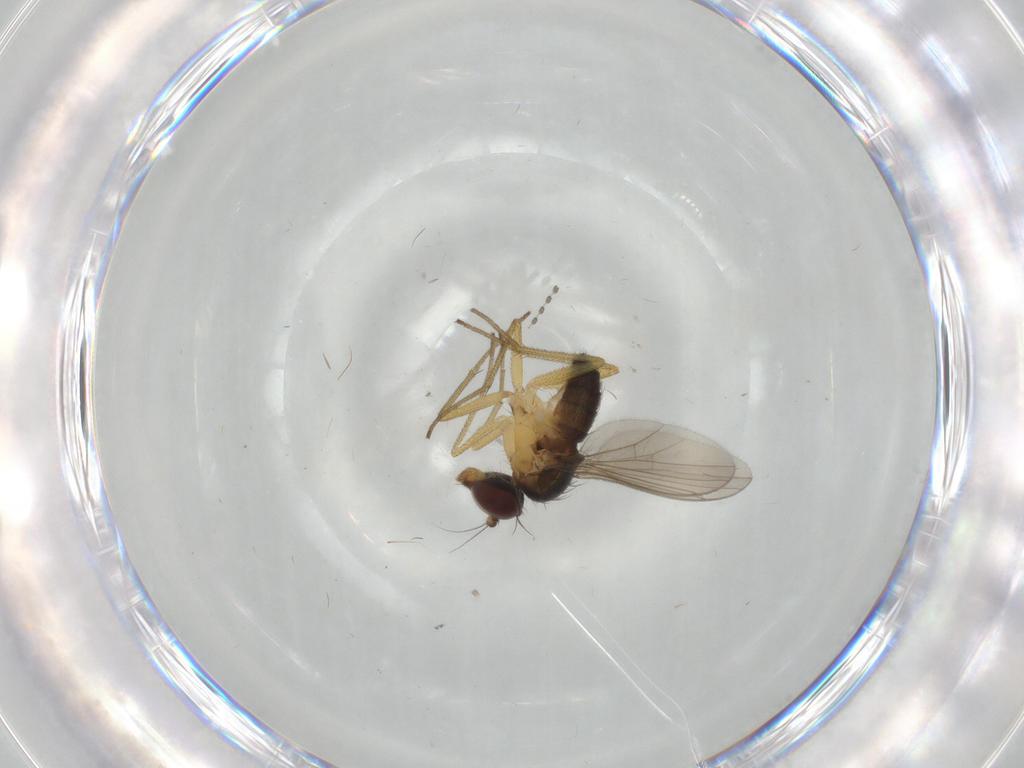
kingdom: Animalia
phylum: Arthropoda
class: Insecta
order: Diptera
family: Dolichopodidae
